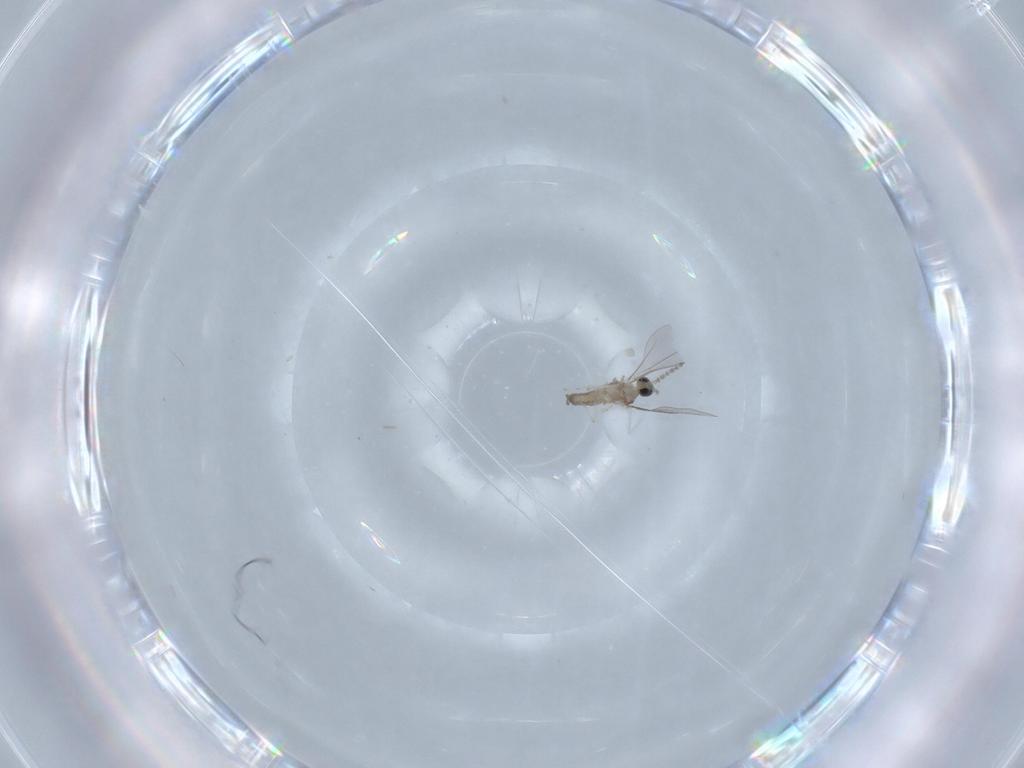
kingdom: Animalia
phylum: Arthropoda
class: Insecta
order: Diptera
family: Cecidomyiidae
